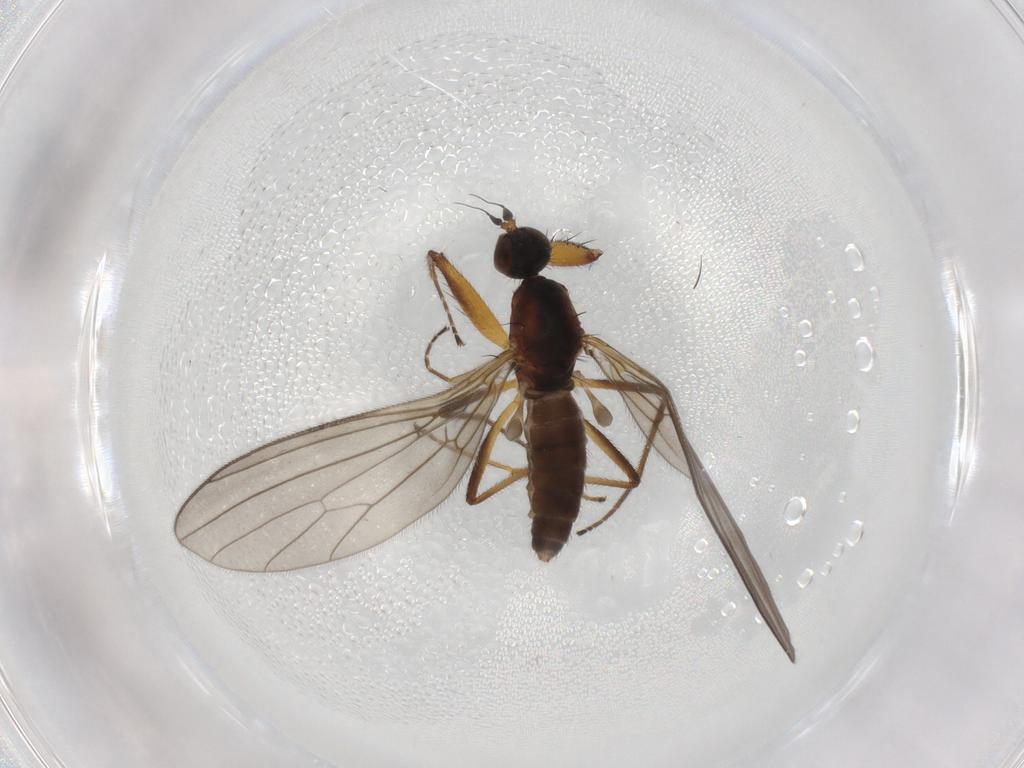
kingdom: Animalia
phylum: Arthropoda
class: Insecta
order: Diptera
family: Empididae
